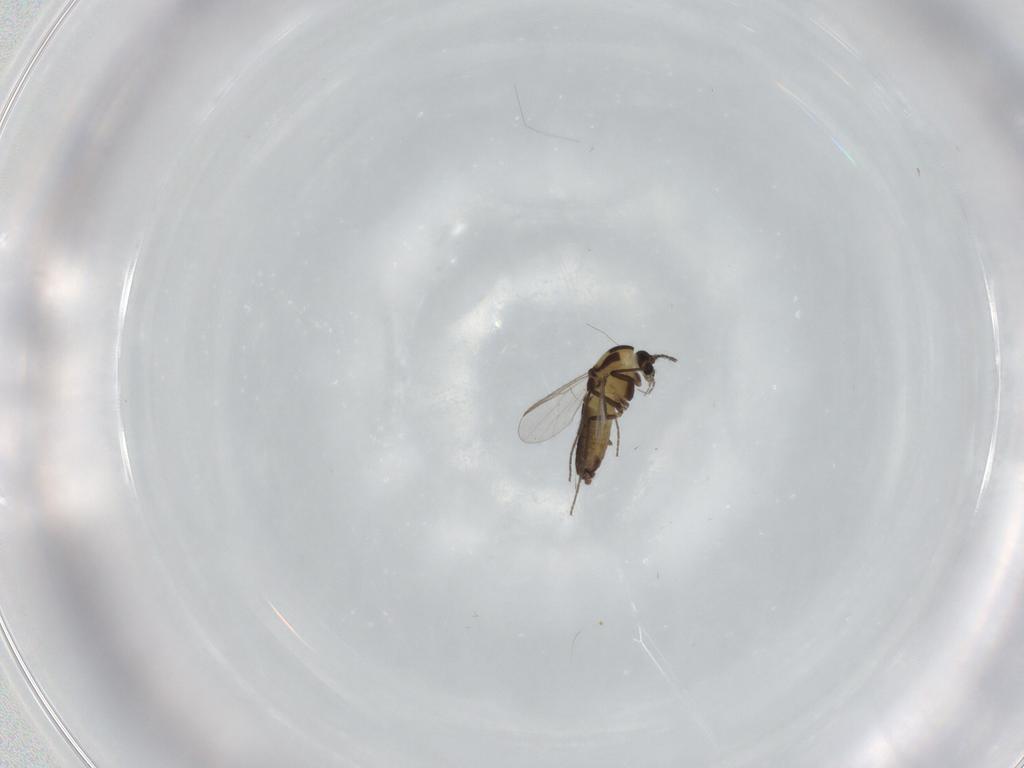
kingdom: Animalia
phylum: Arthropoda
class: Insecta
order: Diptera
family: Chironomidae
